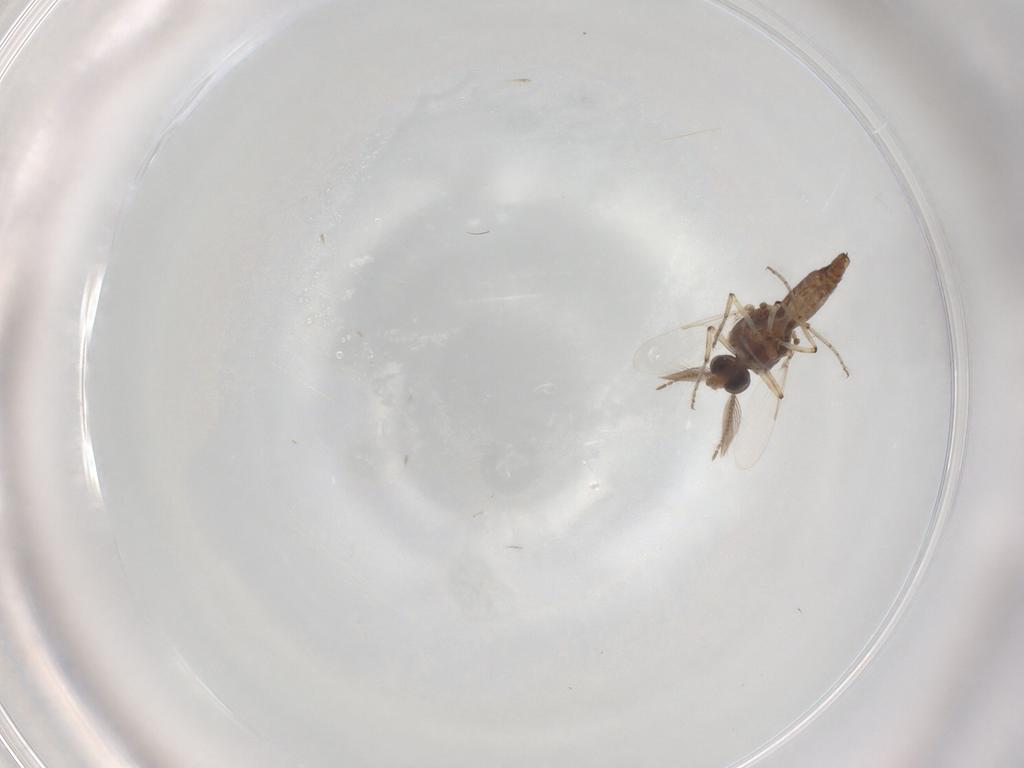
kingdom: Animalia
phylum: Arthropoda
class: Insecta
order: Diptera
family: Ceratopogonidae
